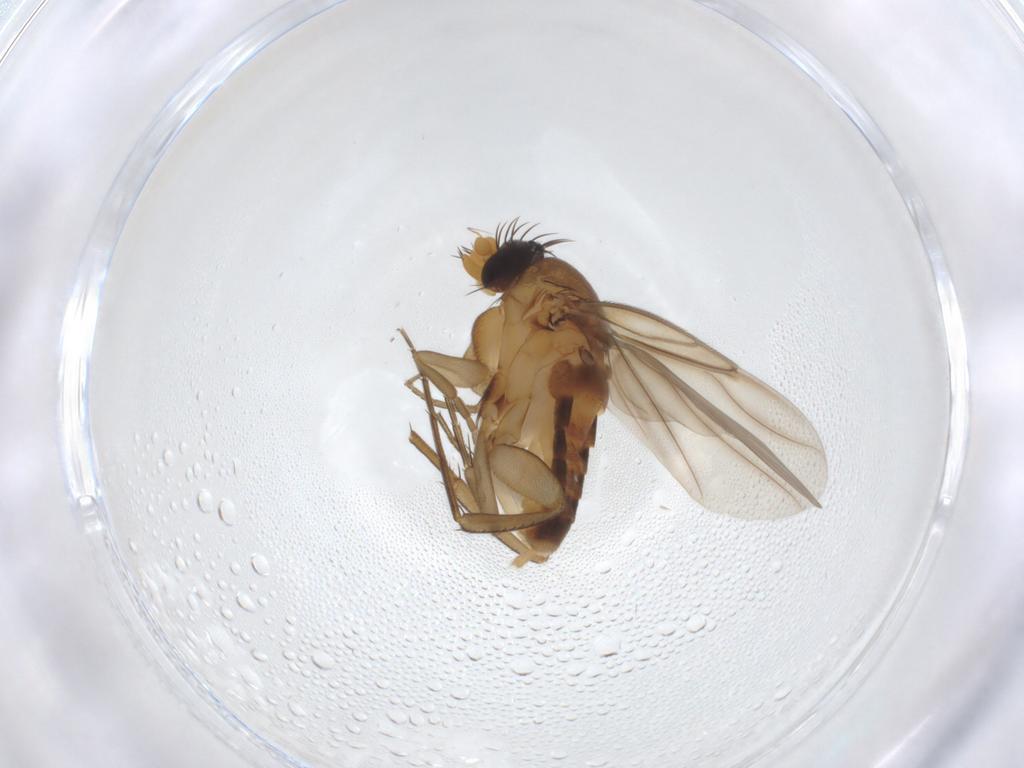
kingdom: Animalia
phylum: Arthropoda
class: Insecta
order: Diptera
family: Phoridae
